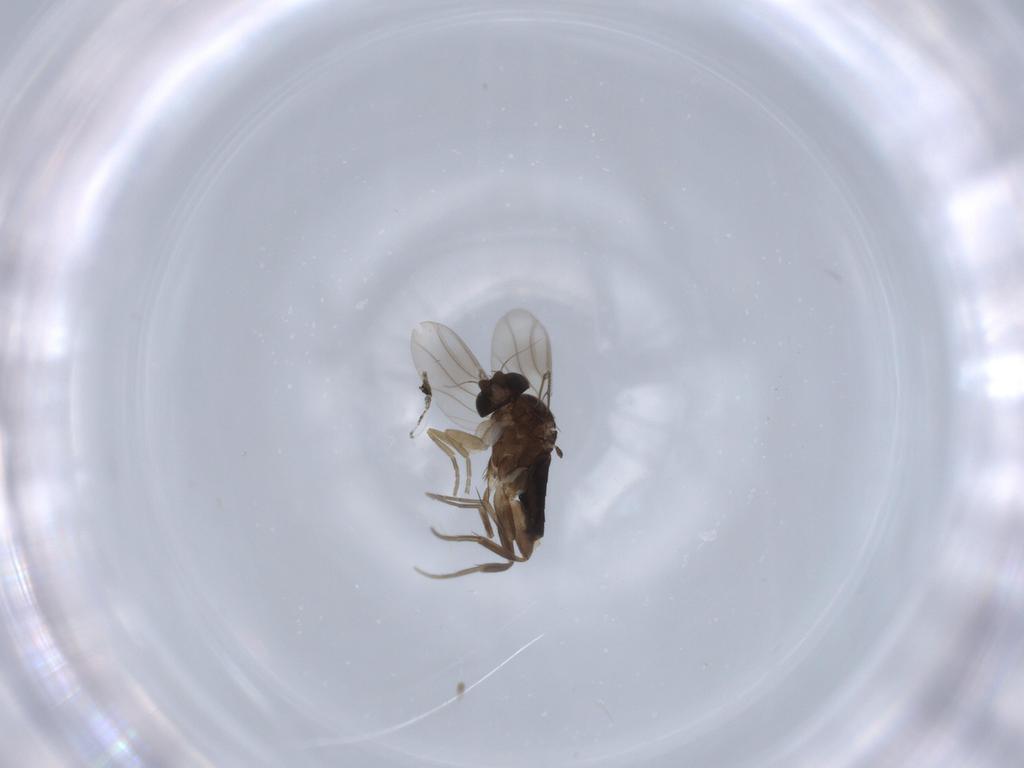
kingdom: Animalia
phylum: Arthropoda
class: Insecta
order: Diptera
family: Phoridae
